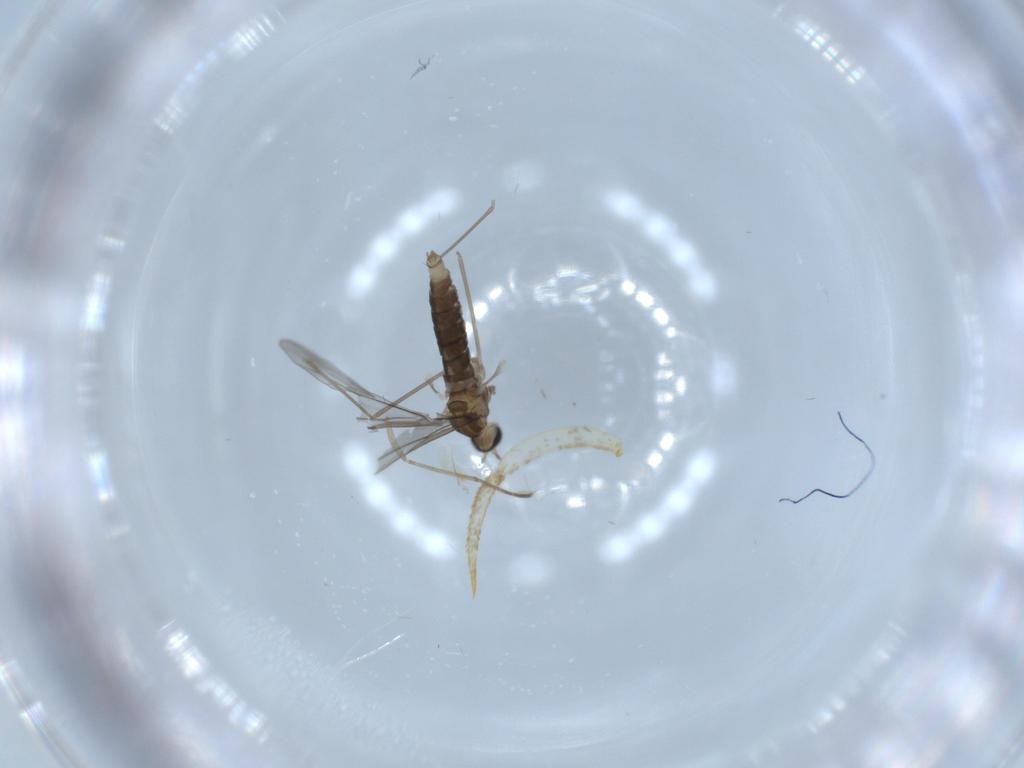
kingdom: Animalia
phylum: Arthropoda
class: Insecta
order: Diptera
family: Cecidomyiidae
